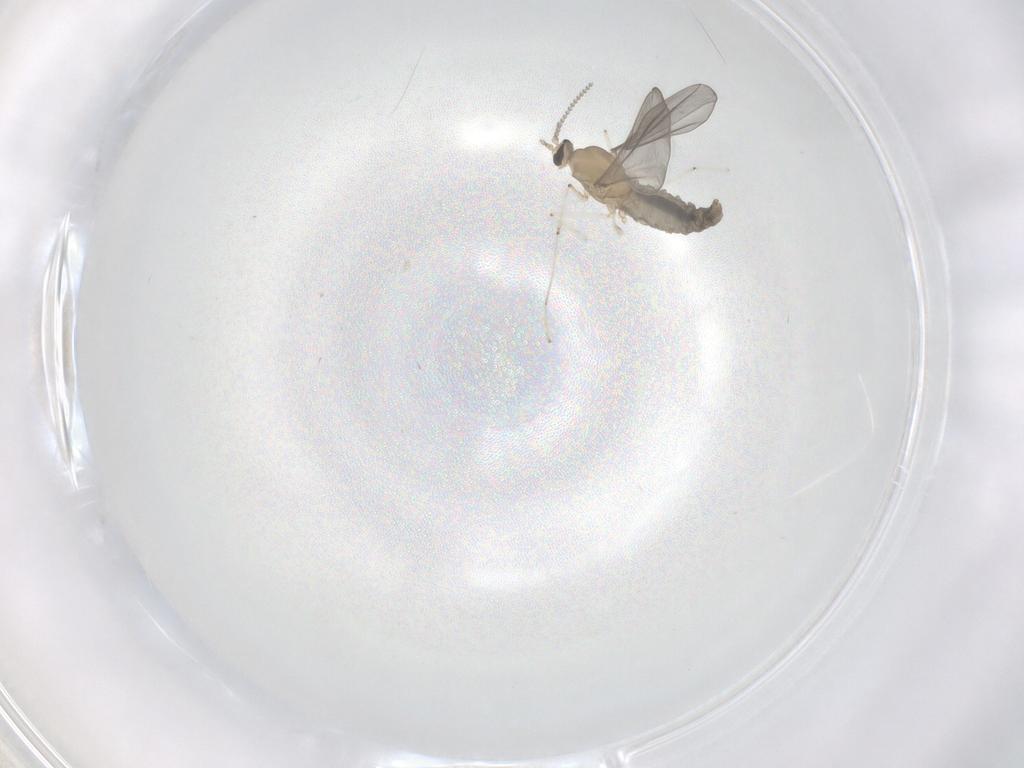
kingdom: Animalia
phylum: Arthropoda
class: Insecta
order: Diptera
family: Cecidomyiidae
